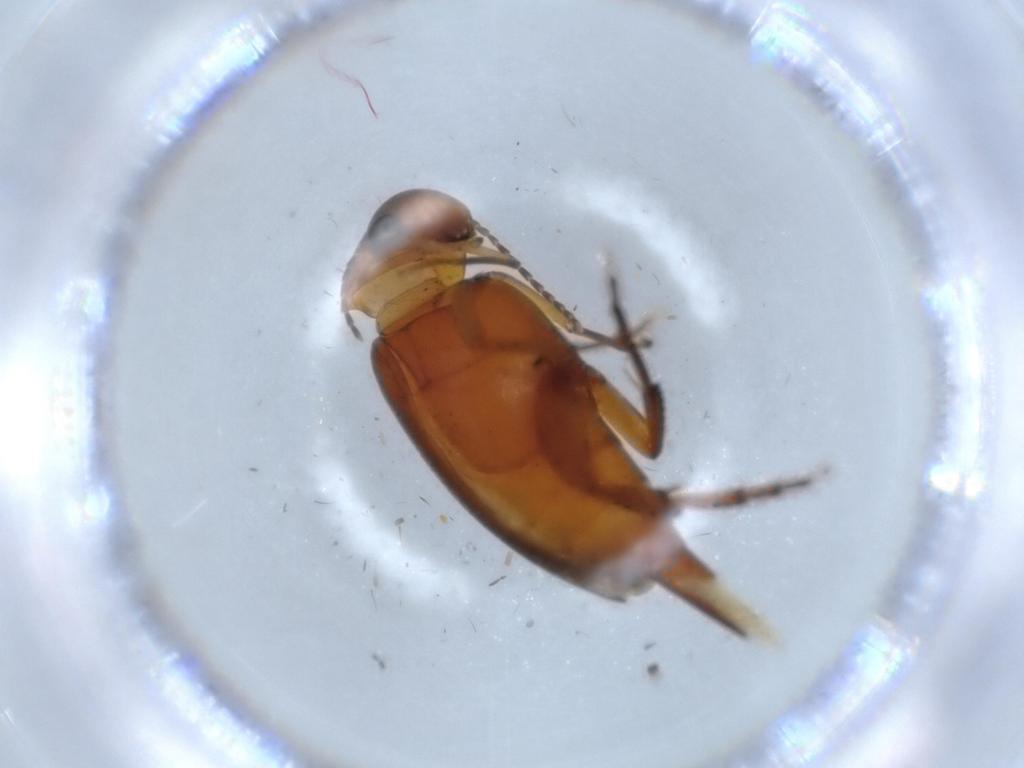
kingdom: Animalia
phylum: Arthropoda
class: Insecta
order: Coleoptera
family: Mordellidae
